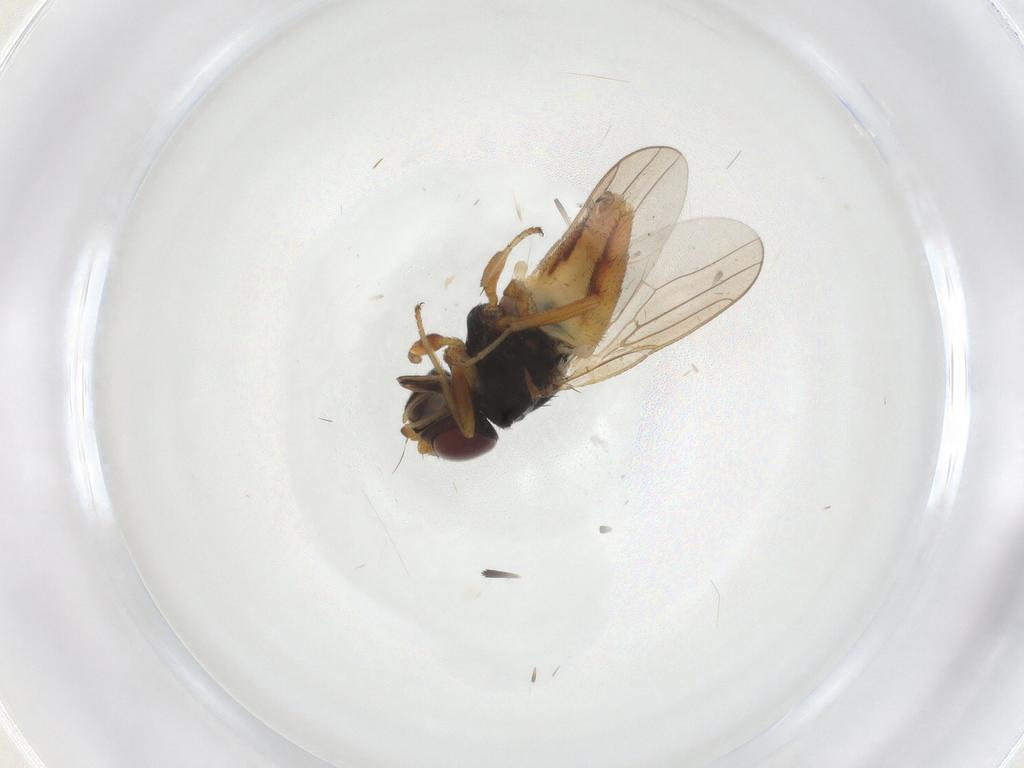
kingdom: Animalia
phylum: Arthropoda
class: Insecta
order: Diptera
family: Chloropidae
